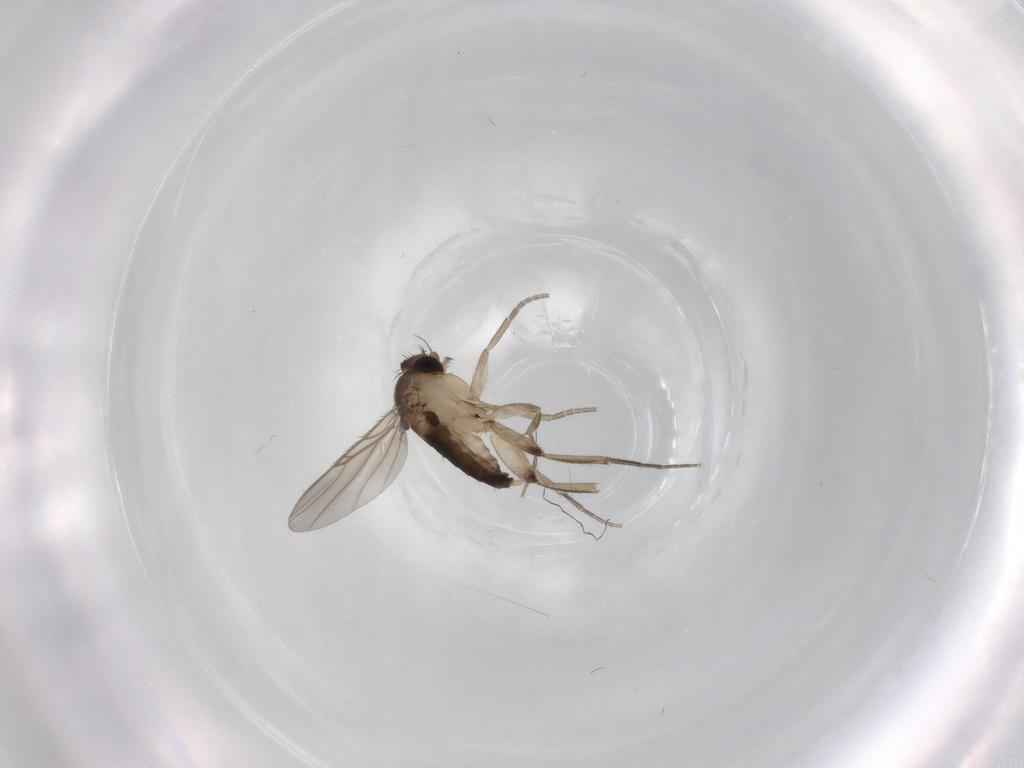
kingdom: Animalia
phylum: Arthropoda
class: Insecta
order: Diptera
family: Phoridae
